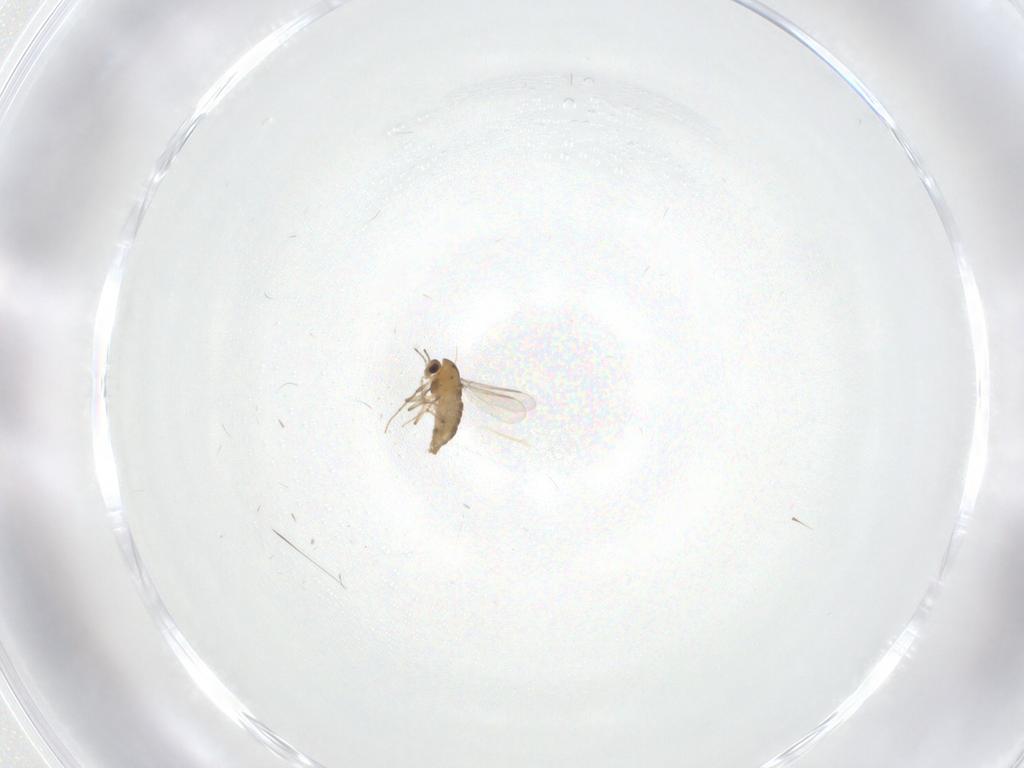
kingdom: Animalia
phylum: Arthropoda
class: Insecta
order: Diptera
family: Chironomidae
